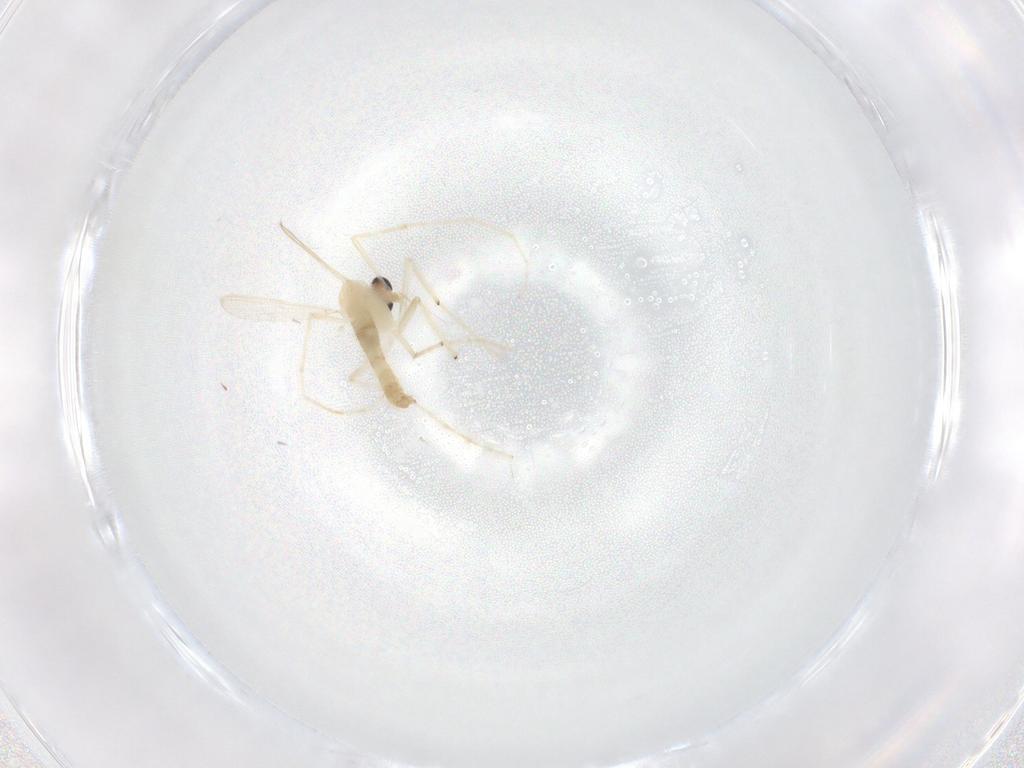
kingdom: Animalia
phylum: Arthropoda
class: Insecta
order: Diptera
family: Chironomidae
